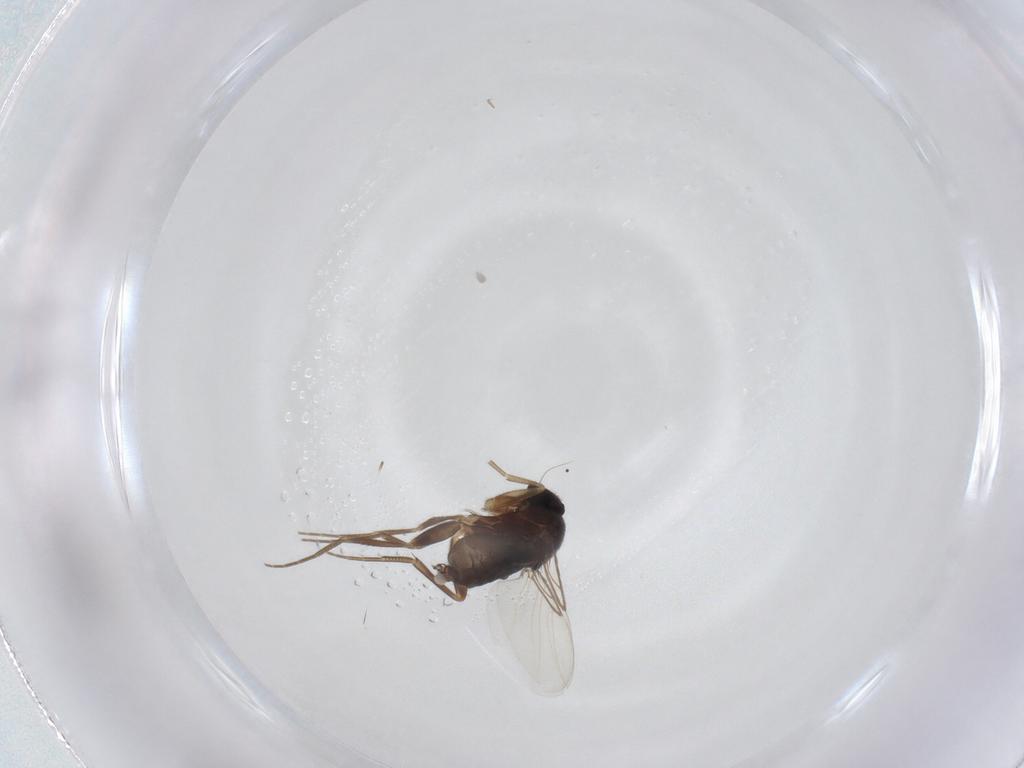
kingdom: Animalia
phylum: Arthropoda
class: Insecta
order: Diptera
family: Phoridae
